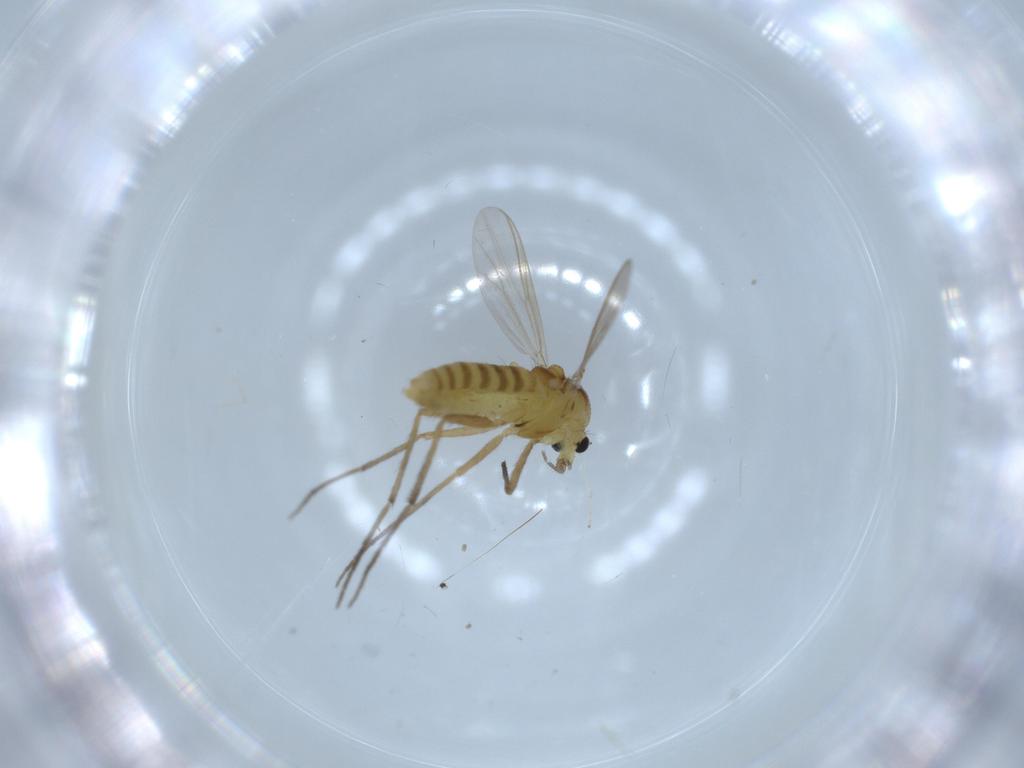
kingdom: Animalia
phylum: Arthropoda
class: Insecta
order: Diptera
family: Chironomidae
